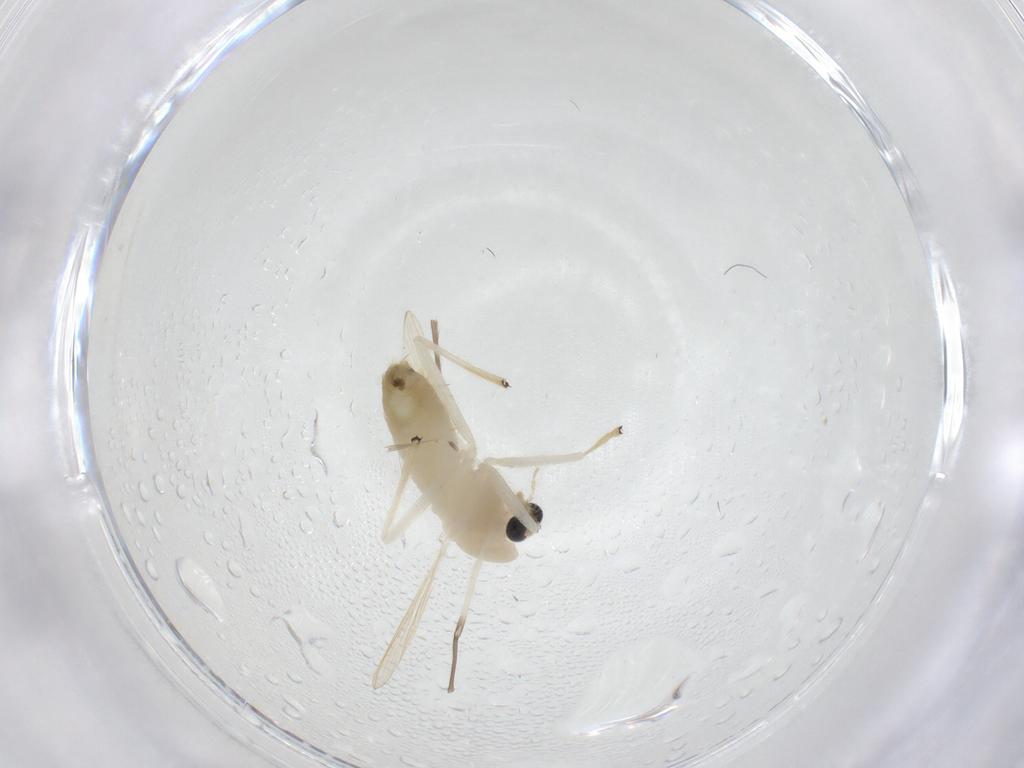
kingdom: Animalia
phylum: Arthropoda
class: Insecta
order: Diptera
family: Chironomidae
